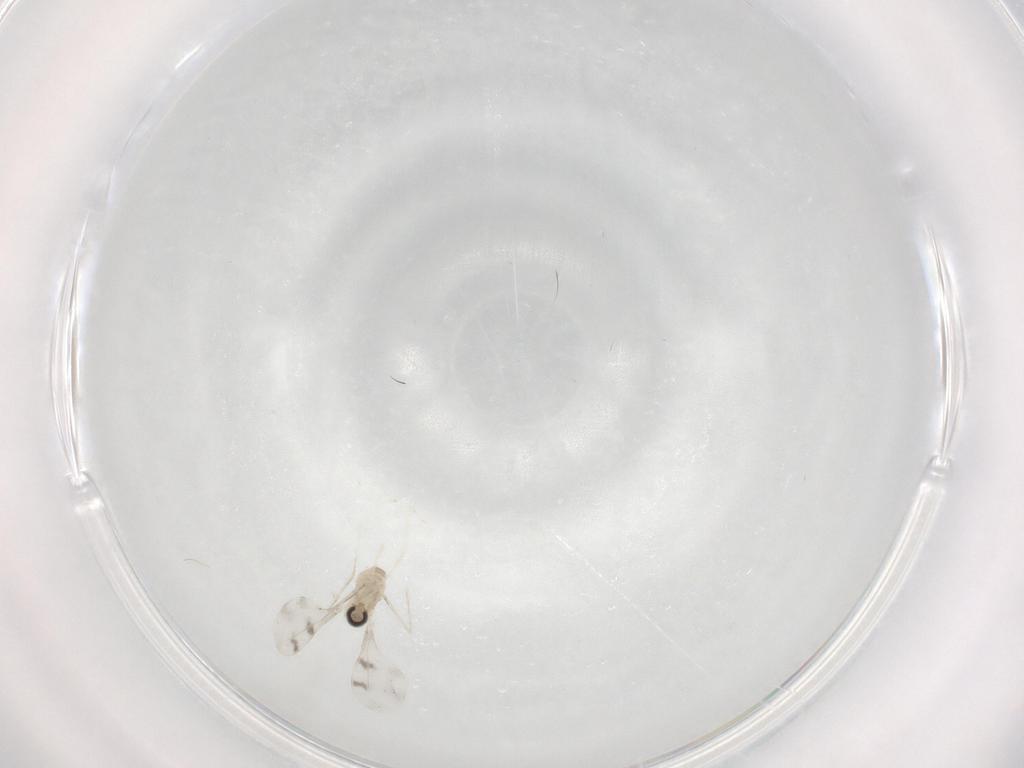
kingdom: Animalia
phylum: Arthropoda
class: Insecta
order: Diptera
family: Cecidomyiidae
